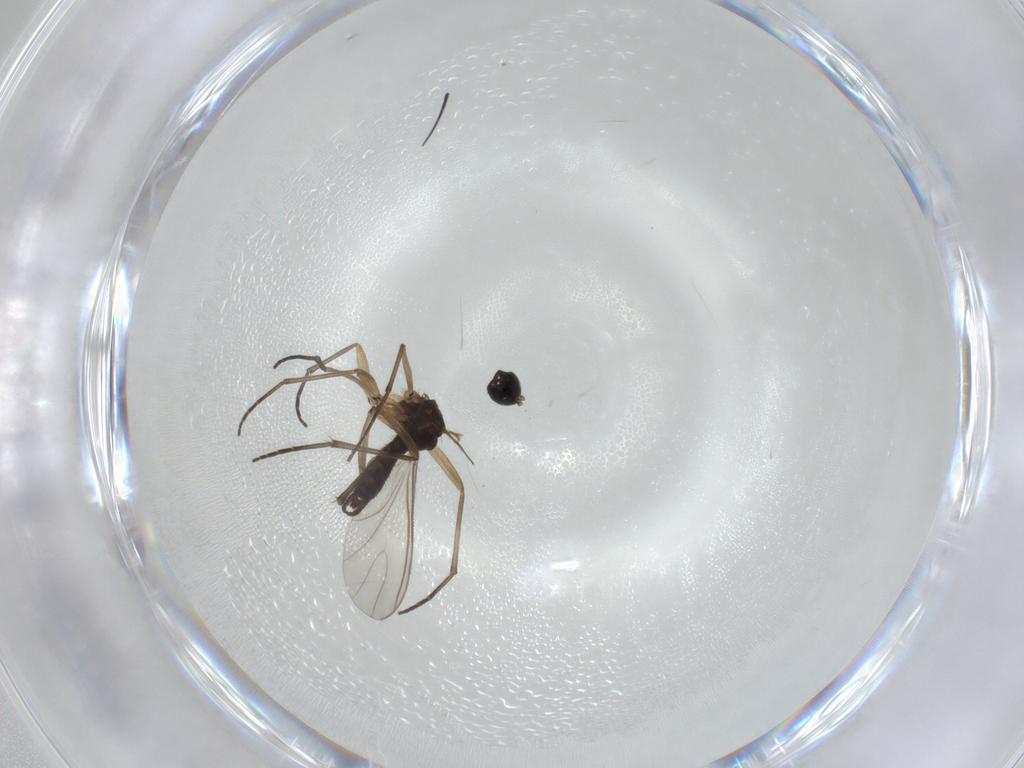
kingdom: Animalia
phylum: Arthropoda
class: Insecta
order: Diptera
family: Sciaridae
